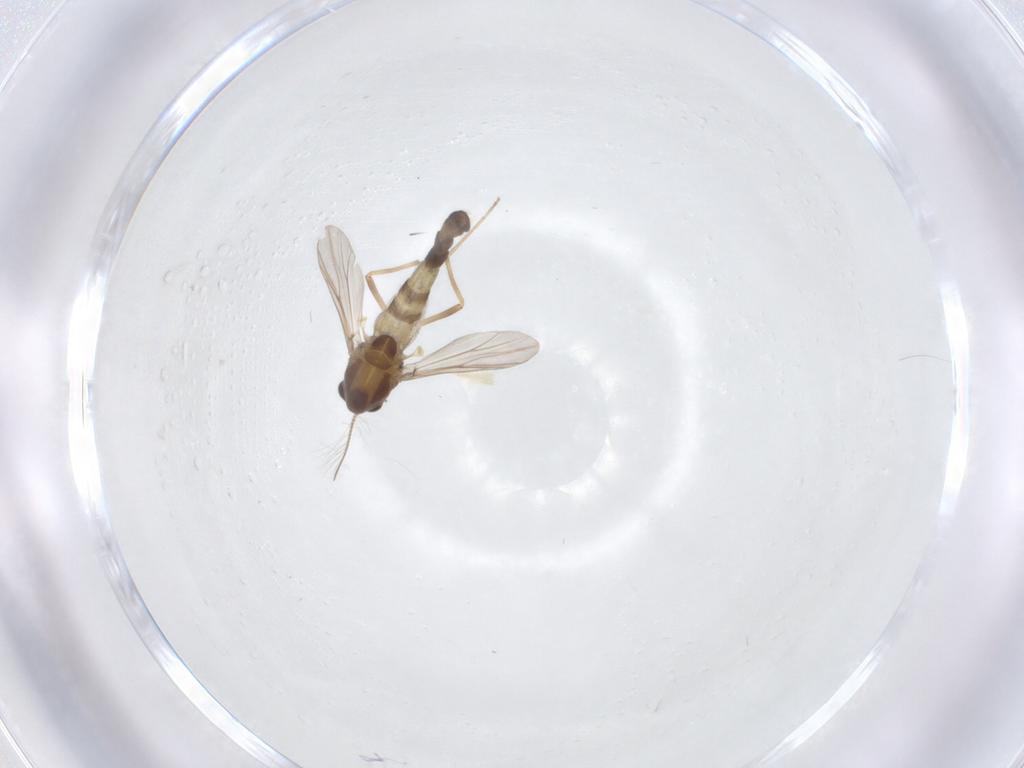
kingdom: Animalia
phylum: Arthropoda
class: Insecta
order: Diptera
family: Chironomidae
